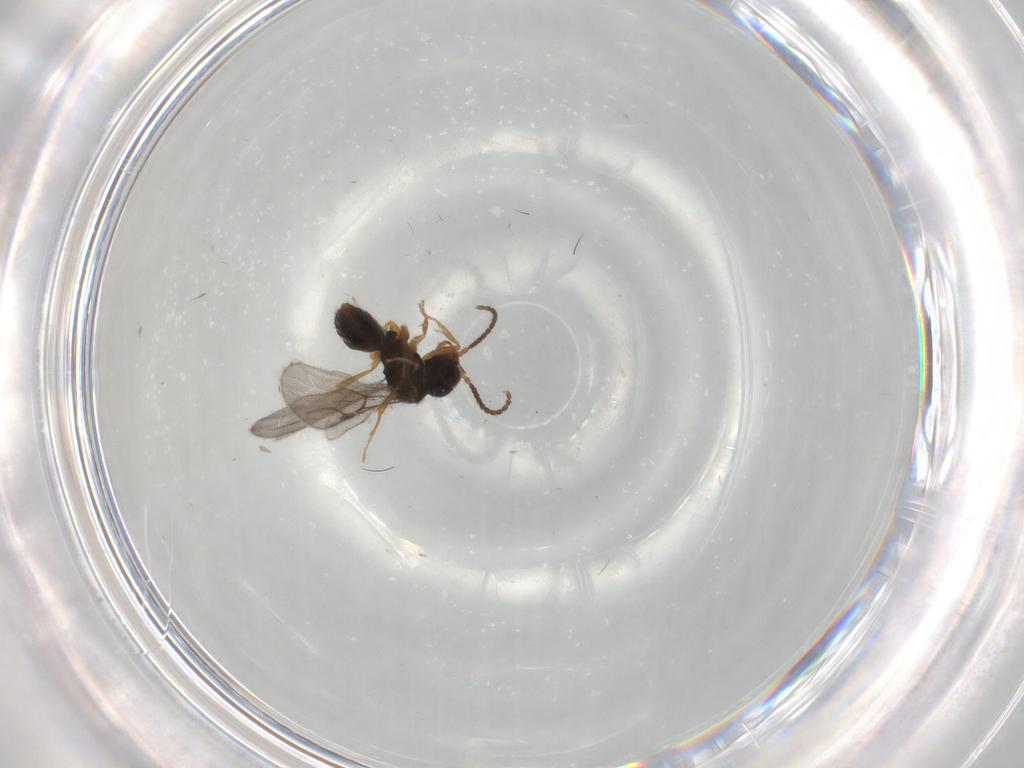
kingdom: Animalia
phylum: Arthropoda
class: Insecta
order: Hymenoptera
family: Bethylidae
